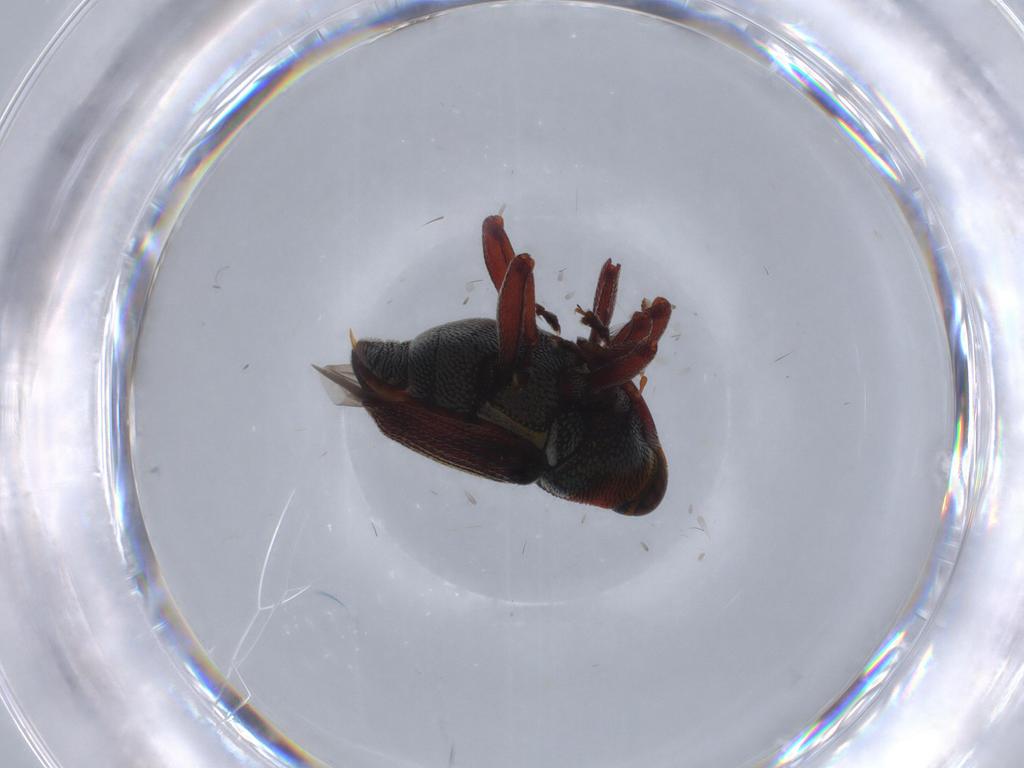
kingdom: Animalia
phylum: Arthropoda
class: Insecta
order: Coleoptera
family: Curculionidae
